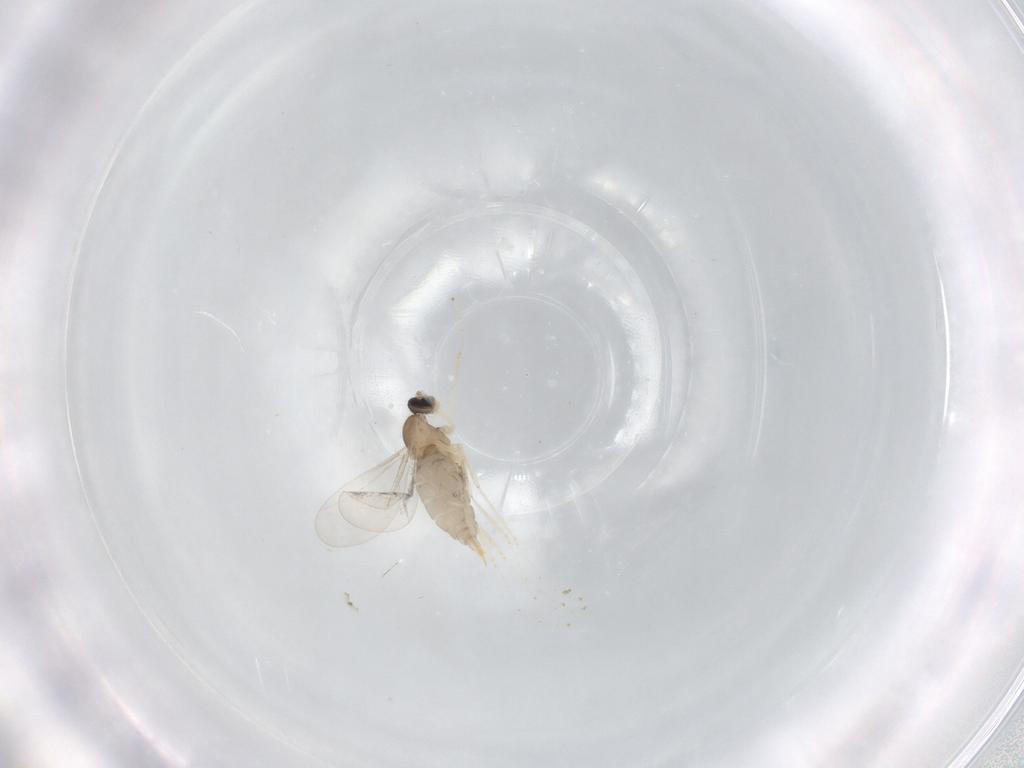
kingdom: Animalia
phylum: Arthropoda
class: Insecta
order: Diptera
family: Cecidomyiidae
